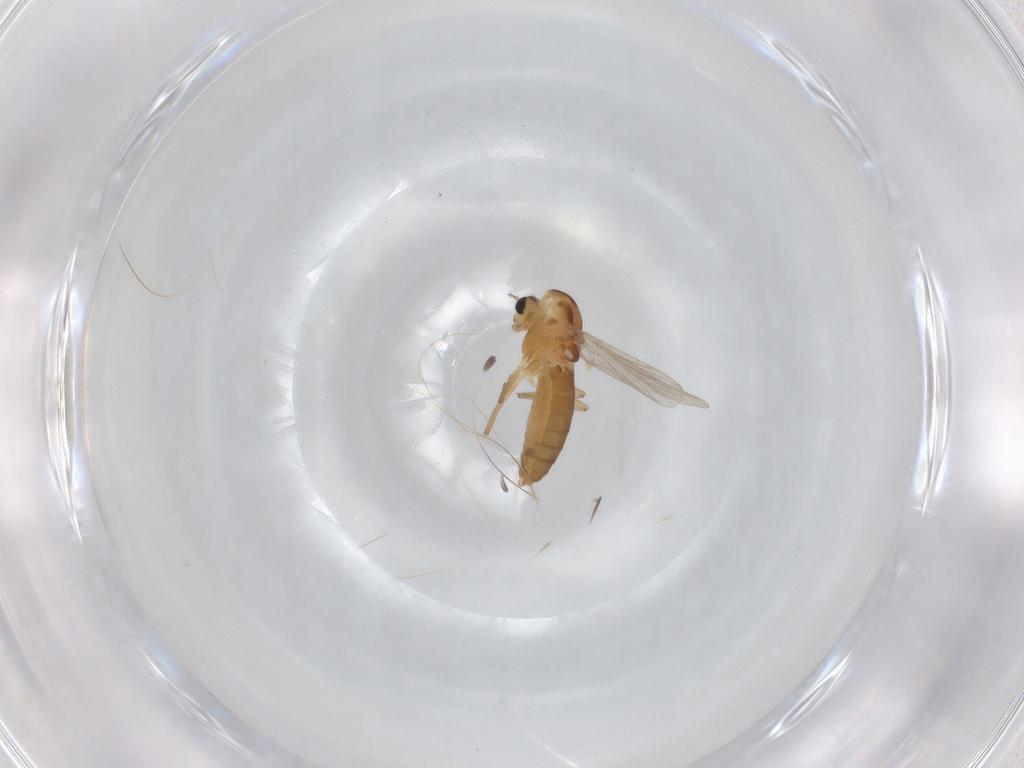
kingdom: Animalia
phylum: Arthropoda
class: Insecta
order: Diptera
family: Chironomidae
